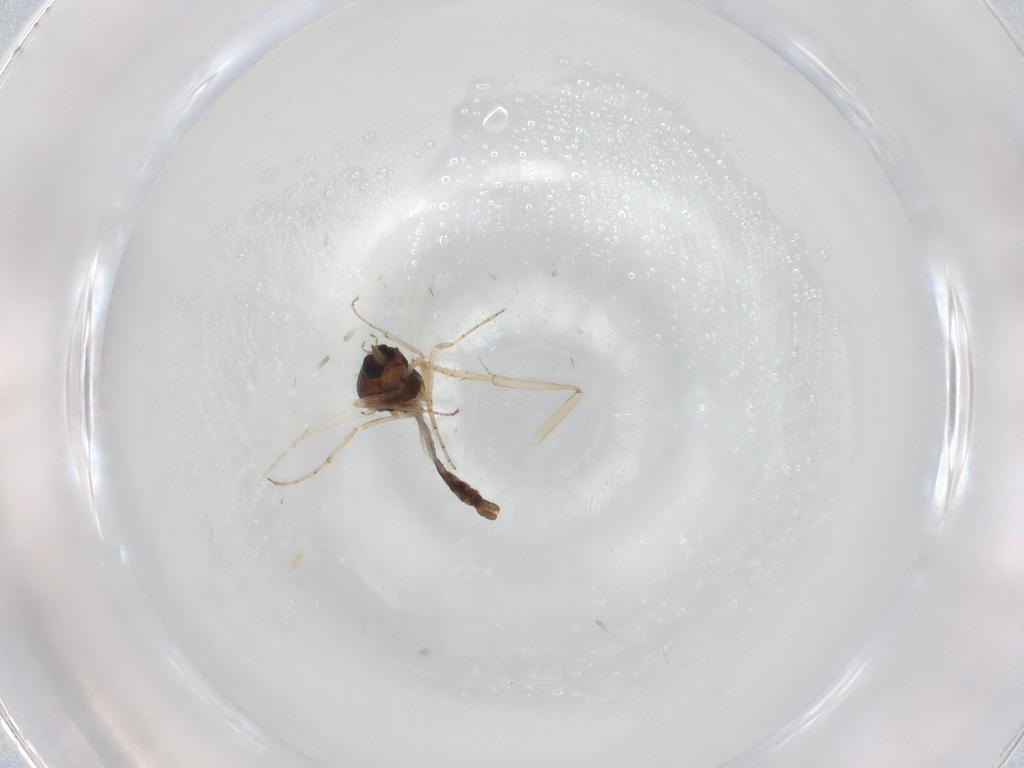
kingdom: Animalia
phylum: Arthropoda
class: Insecta
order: Diptera
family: Ceratopogonidae
